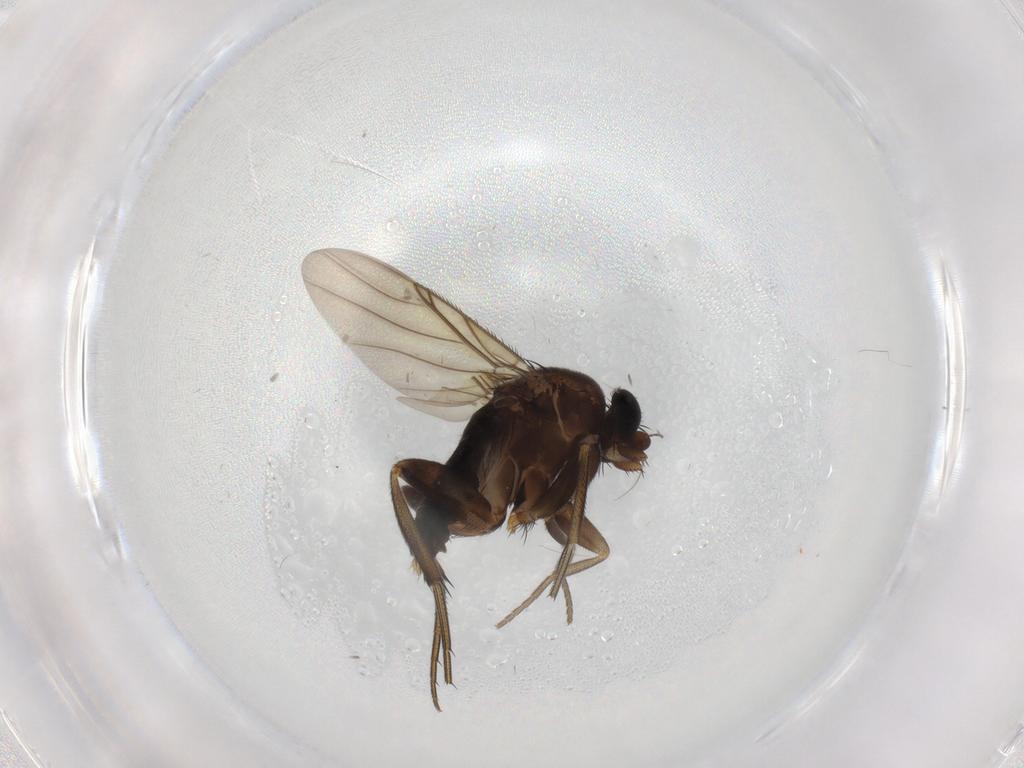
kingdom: Animalia
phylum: Arthropoda
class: Insecta
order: Diptera
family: Phoridae
